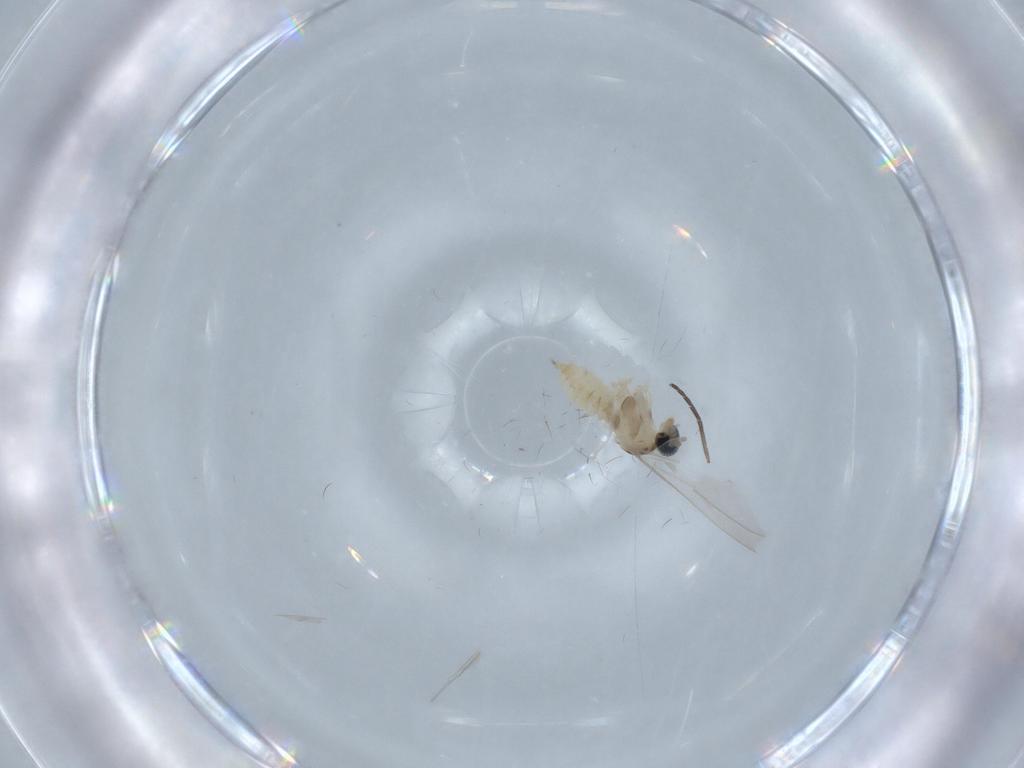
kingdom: Animalia
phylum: Arthropoda
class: Insecta
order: Diptera
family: Cecidomyiidae
